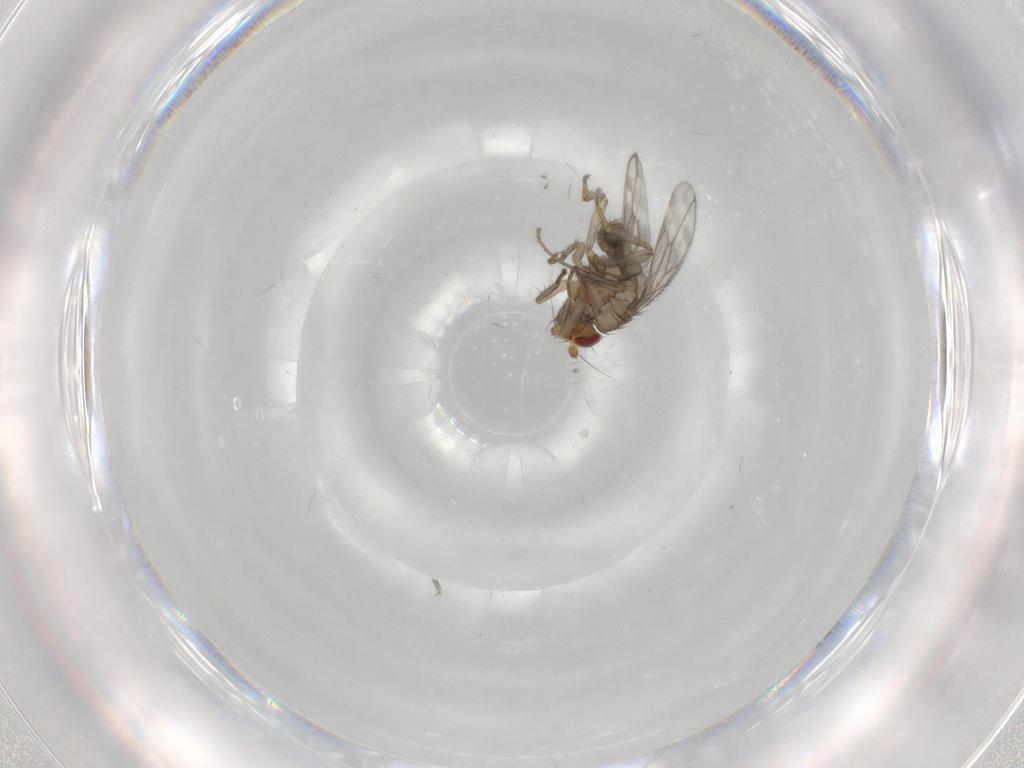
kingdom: Animalia
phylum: Arthropoda
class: Insecta
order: Diptera
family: Sphaeroceridae
